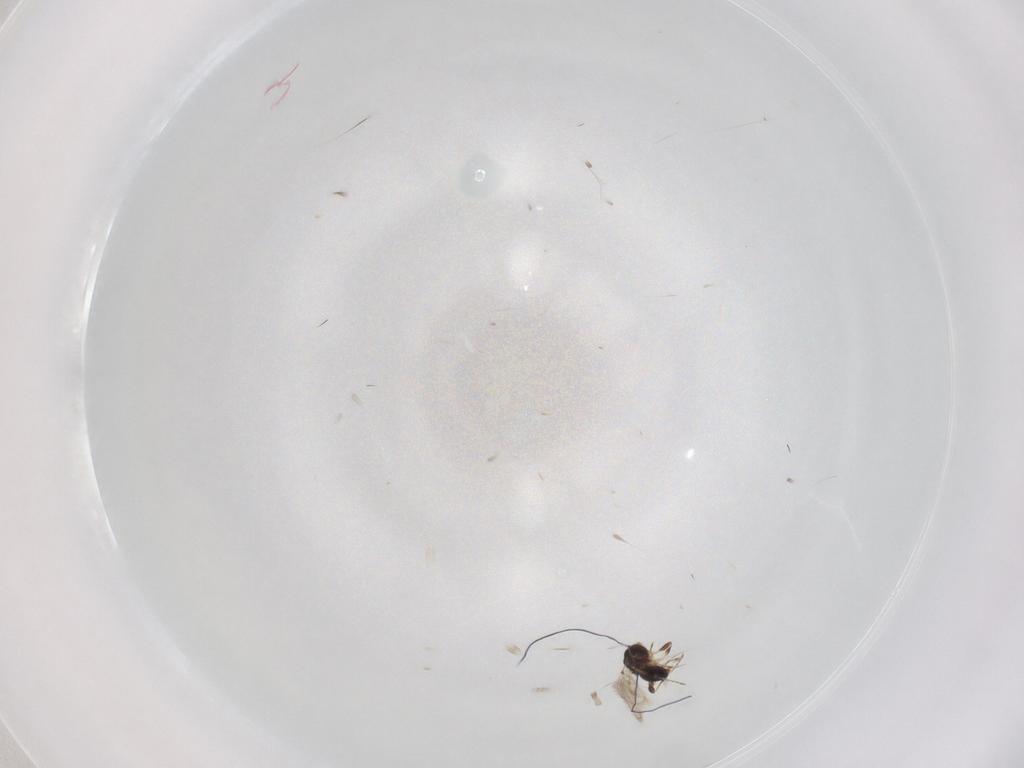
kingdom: Animalia
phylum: Arthropoda
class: Insecta
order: Hymenoptera
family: Diapriidae
